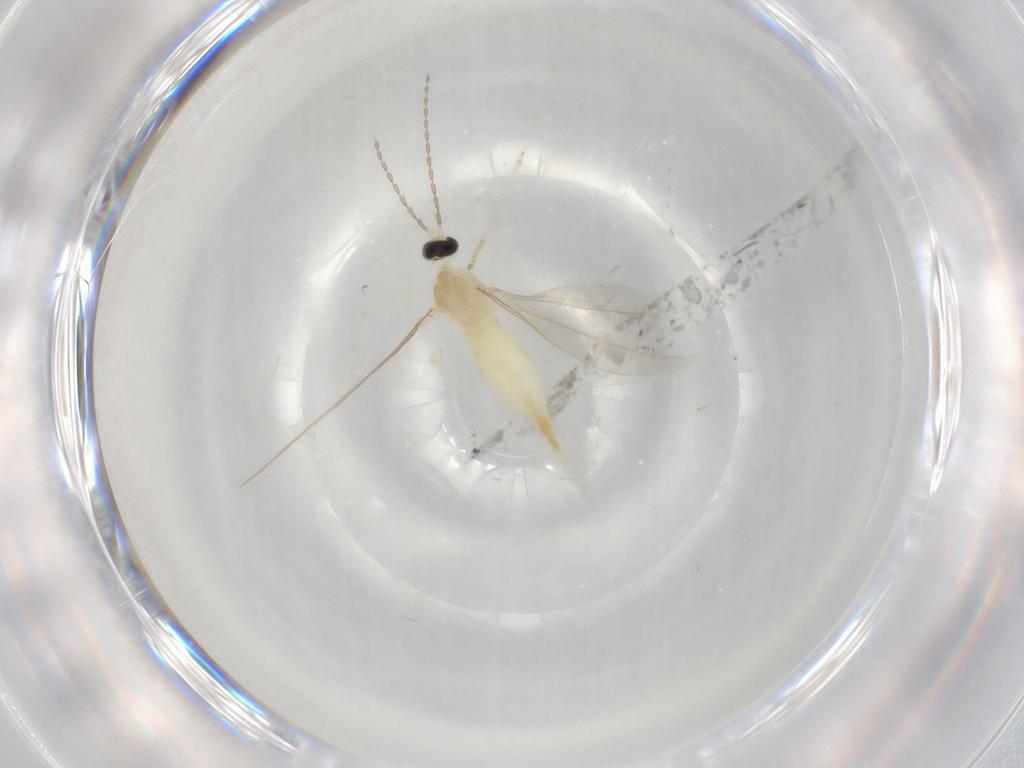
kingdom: Animalia
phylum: Arthropoda
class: Insecta
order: Diptera
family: Cecidomyiidae
